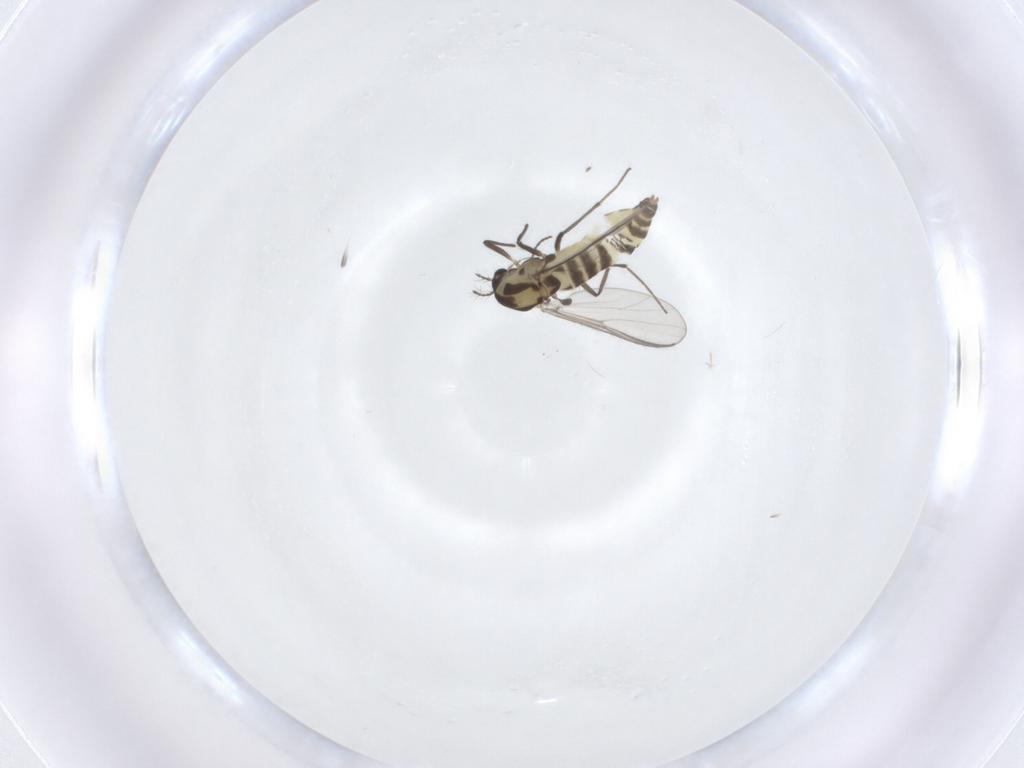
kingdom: Animalia
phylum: Arthropoda
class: Insecta
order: Diptera
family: Chironomidae
